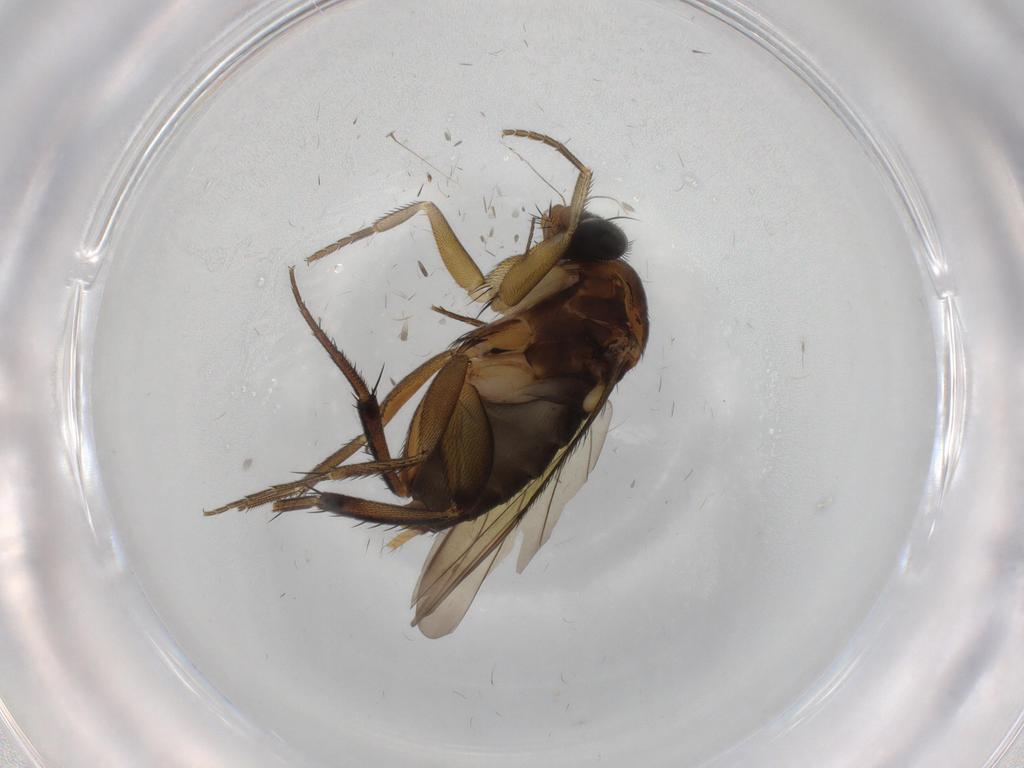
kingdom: Animalia
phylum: Arthropoda
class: Insecta
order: Diptera
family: Phoridae
